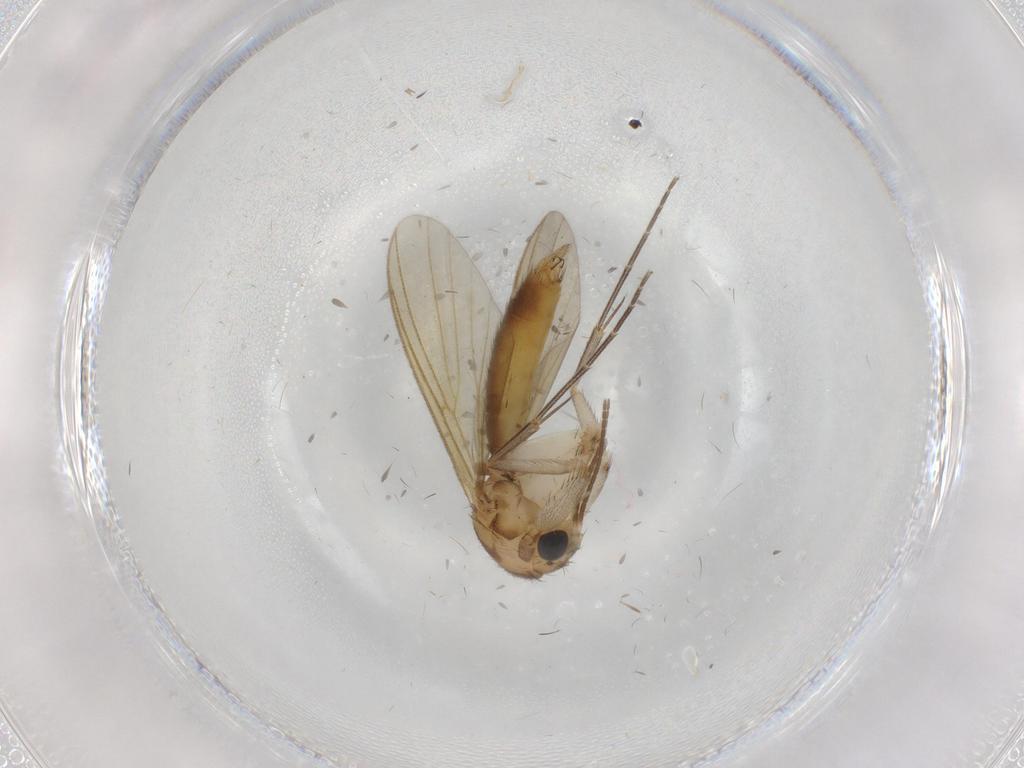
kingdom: Animalia
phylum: Arthropoda
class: Insecta
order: Diptera
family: Mycetophilidae
